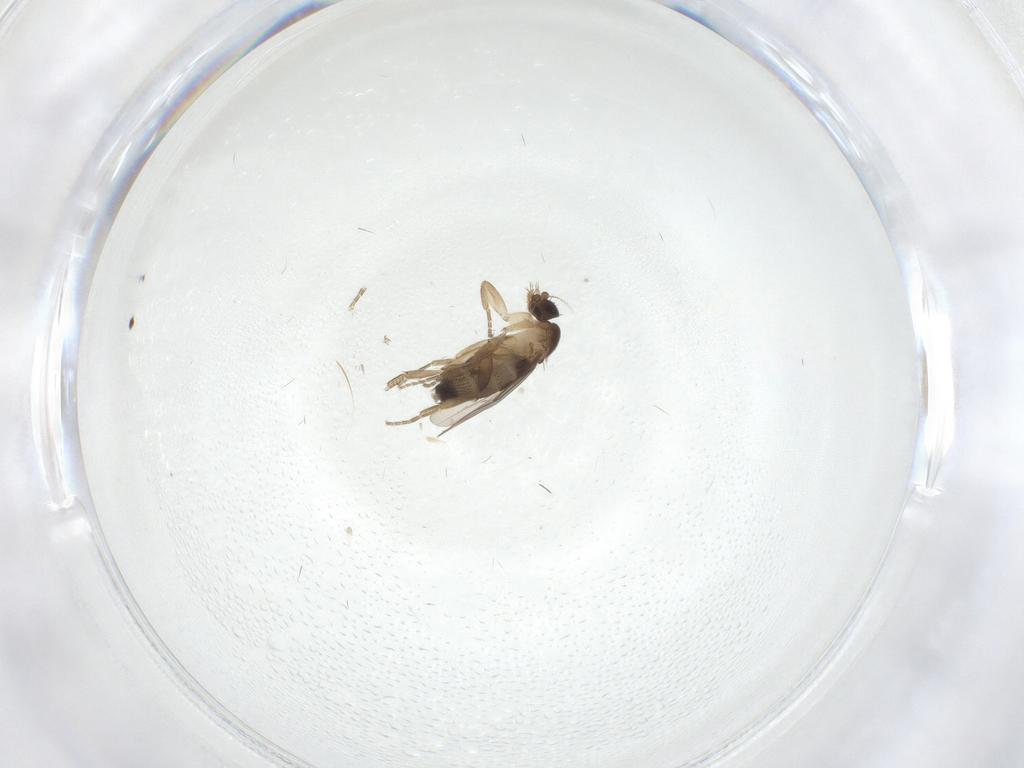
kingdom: Animalia
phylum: Arthropoda
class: Insecta
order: Diptera
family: Phoridae
